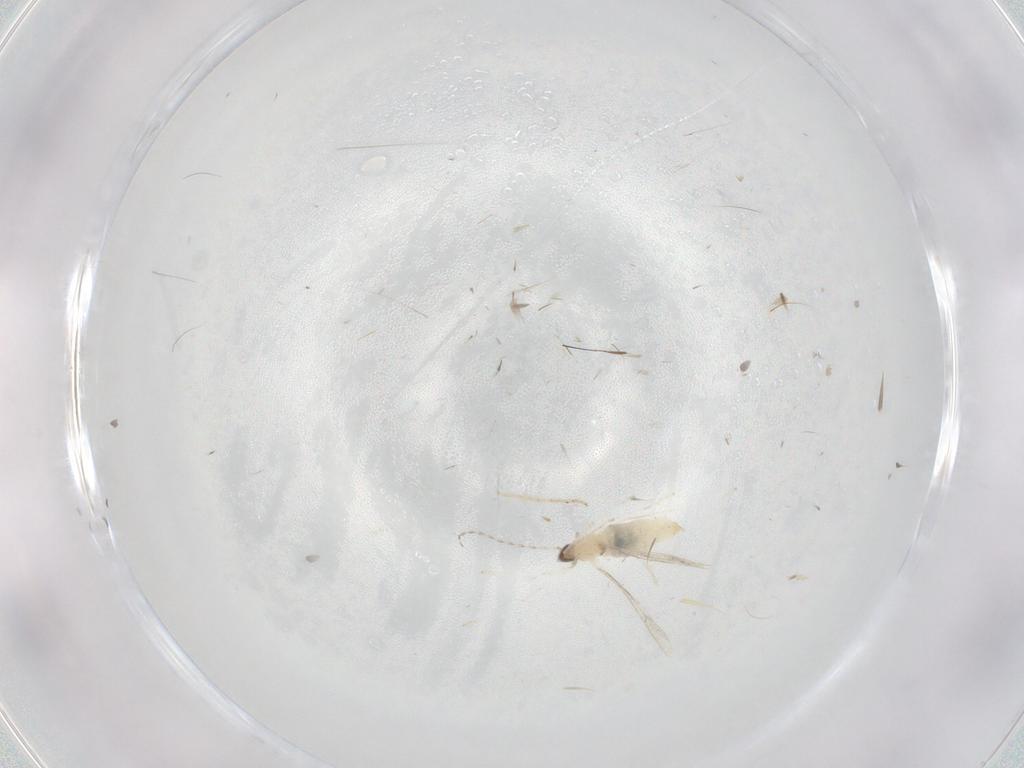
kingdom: Animalia
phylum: Arthropoda
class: Insecta
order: Diptera
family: Cecidomyiidae
